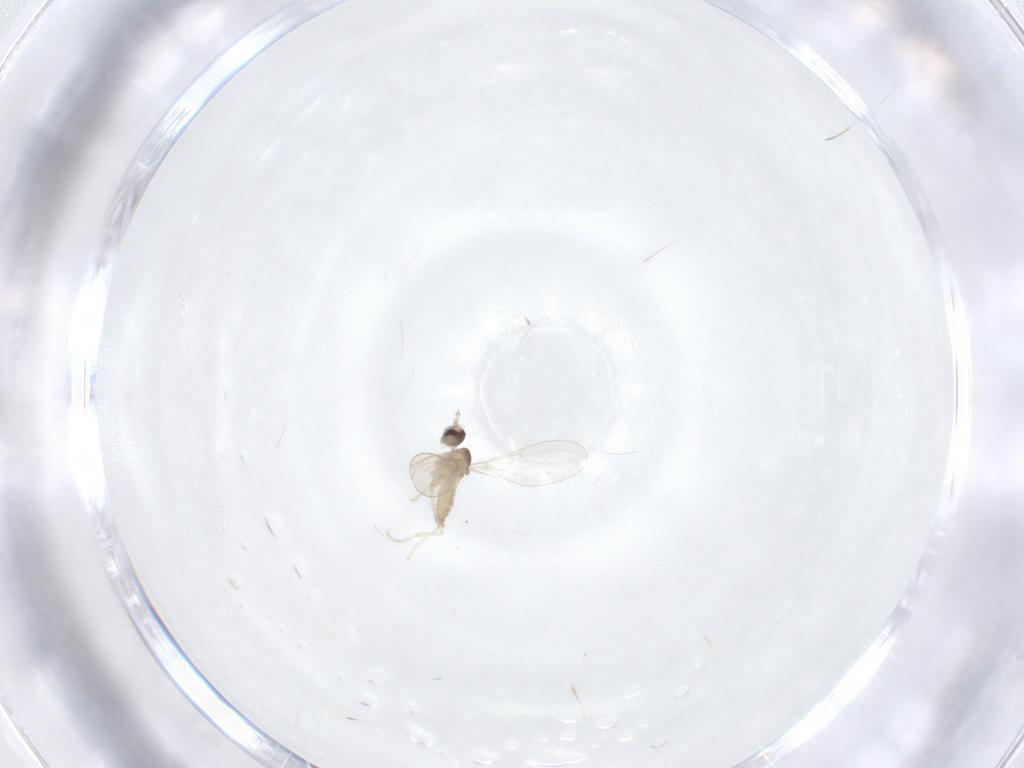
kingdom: Animalia
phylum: Arthropoda
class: Insecta
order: Diptera
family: Cecidomyiidae
